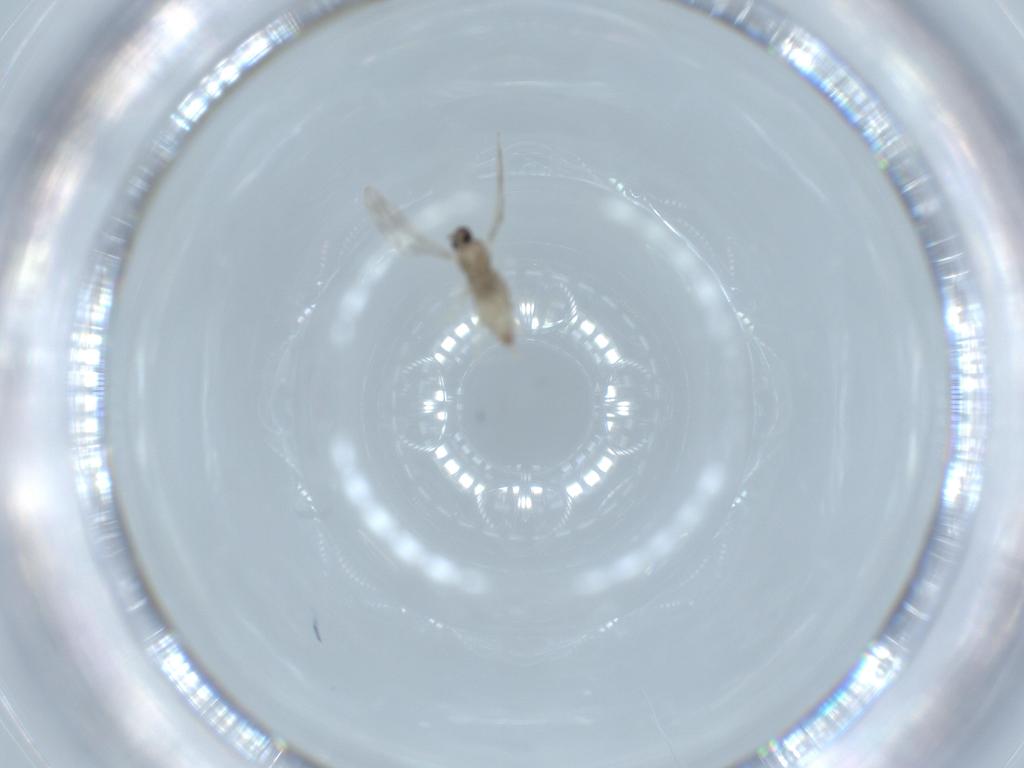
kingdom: Animalia
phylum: Arthropoda
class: Insecta
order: Diptera
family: Cecidomyiidae
